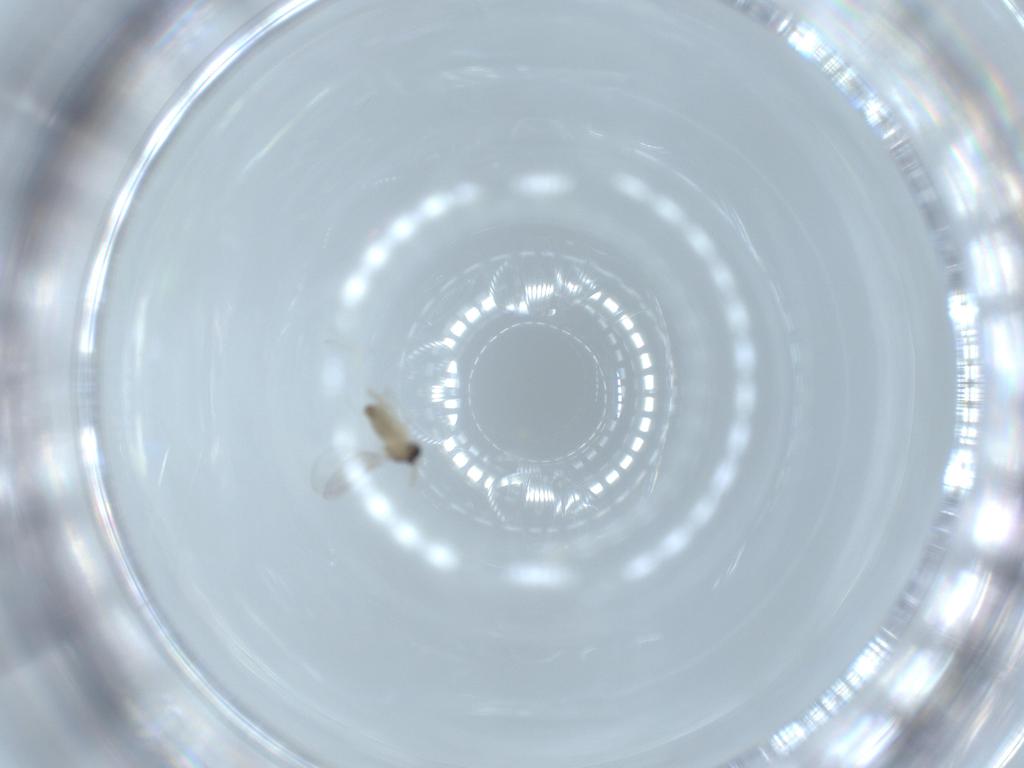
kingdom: Animalia
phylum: Arthropoda
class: Insecta
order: Diptera
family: Cecidomyiidae
